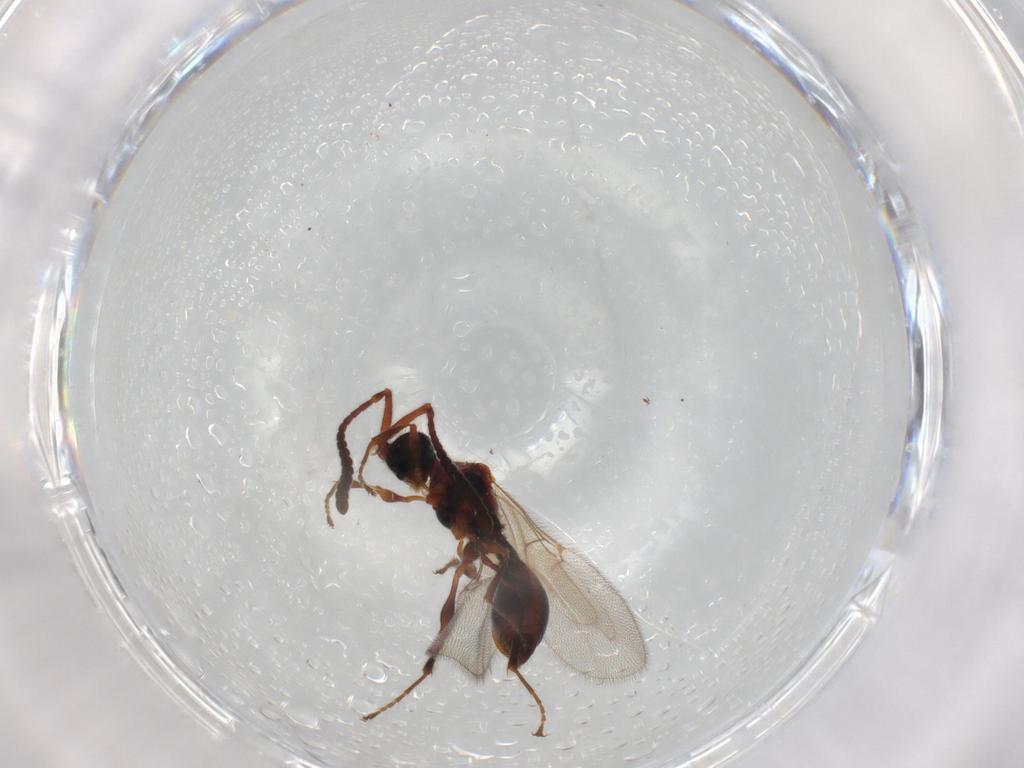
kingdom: Animalia
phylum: Arthropoda
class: Insecta
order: Hymenoptera
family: Diapriidae
